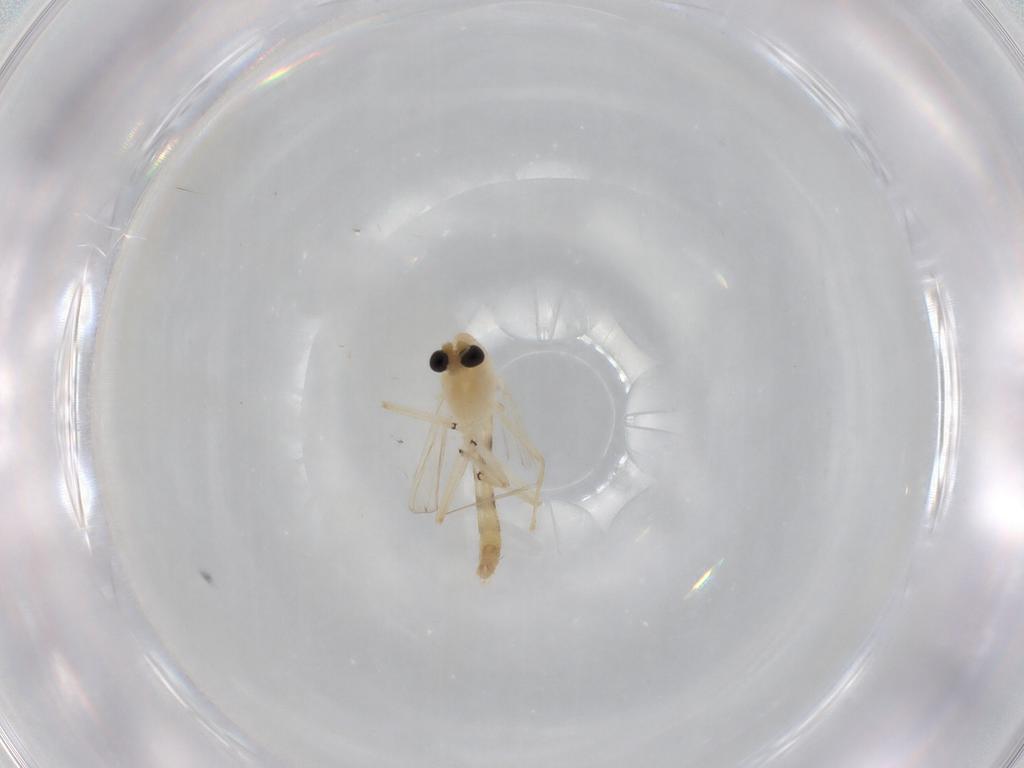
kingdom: Animalia
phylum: Arthropoda
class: Insecta
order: Diptera
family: Chironomidae
